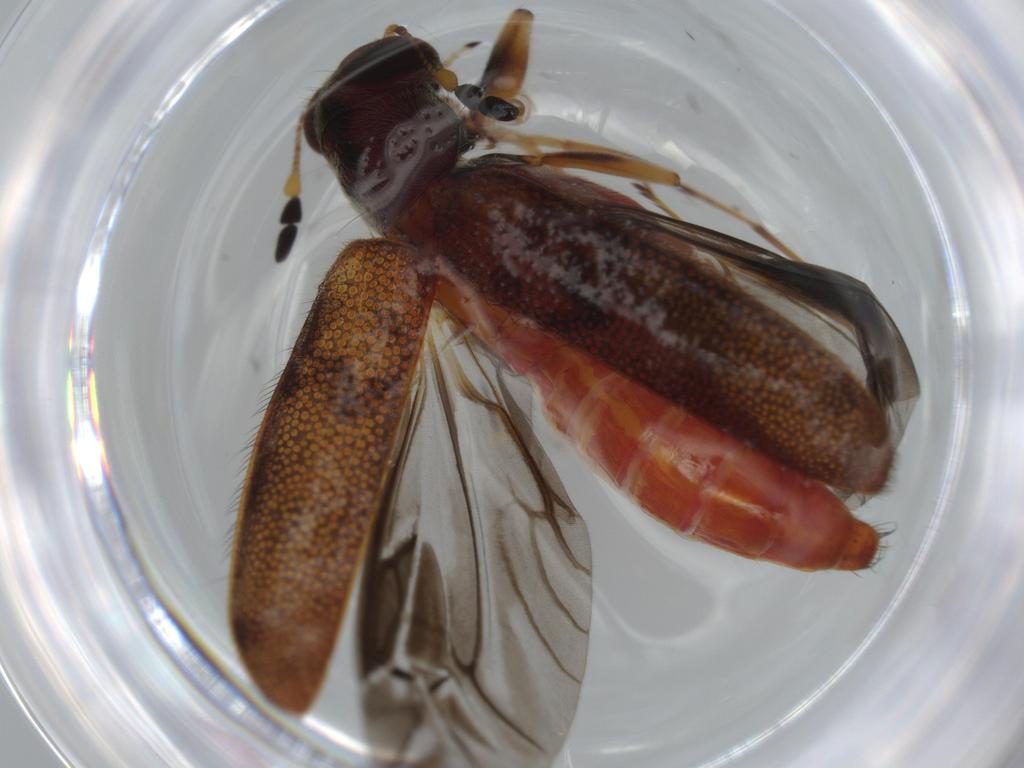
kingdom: Animalia
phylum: Arthropoda
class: Insecta
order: Coleoptera
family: Cleridae
